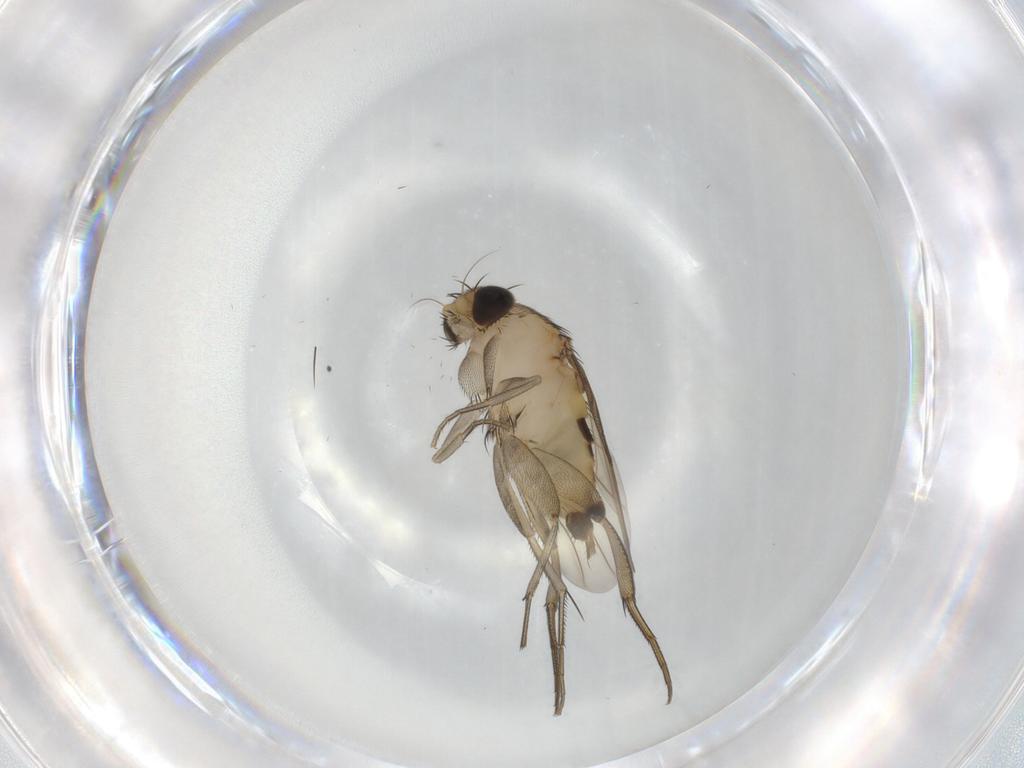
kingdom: Animalia
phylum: Arthropoda
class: Insecta
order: Diptera
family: Phoridae
